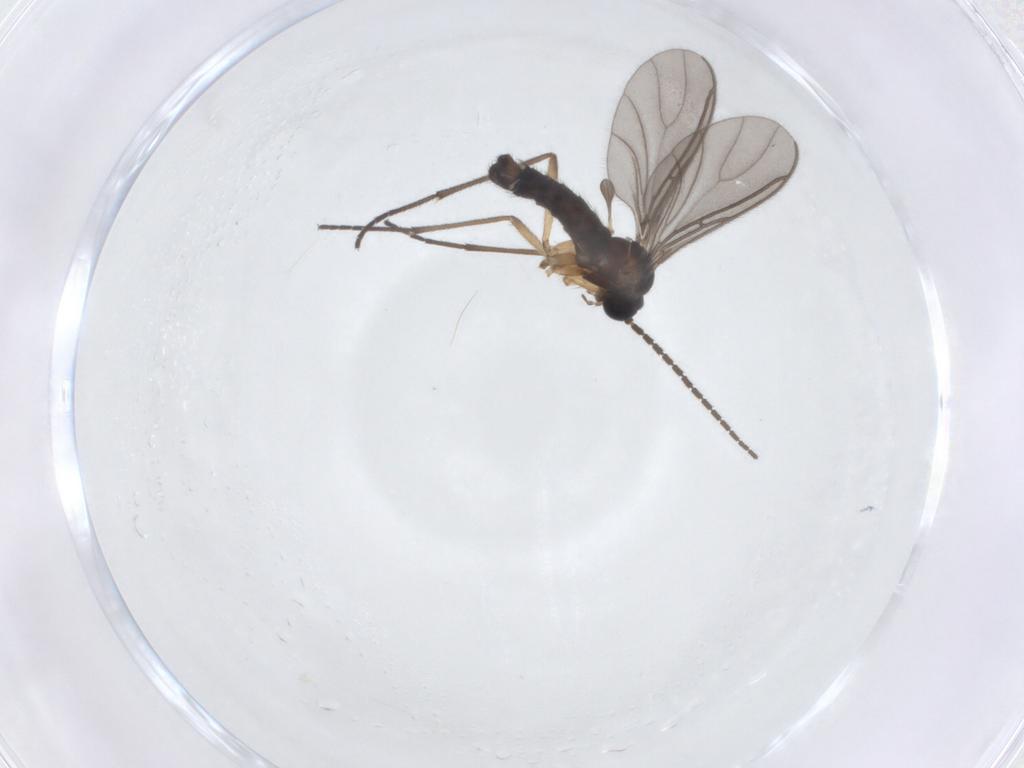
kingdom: Animalia
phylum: Arthropoda
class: Insecta
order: Diptera
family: Sciaridae
